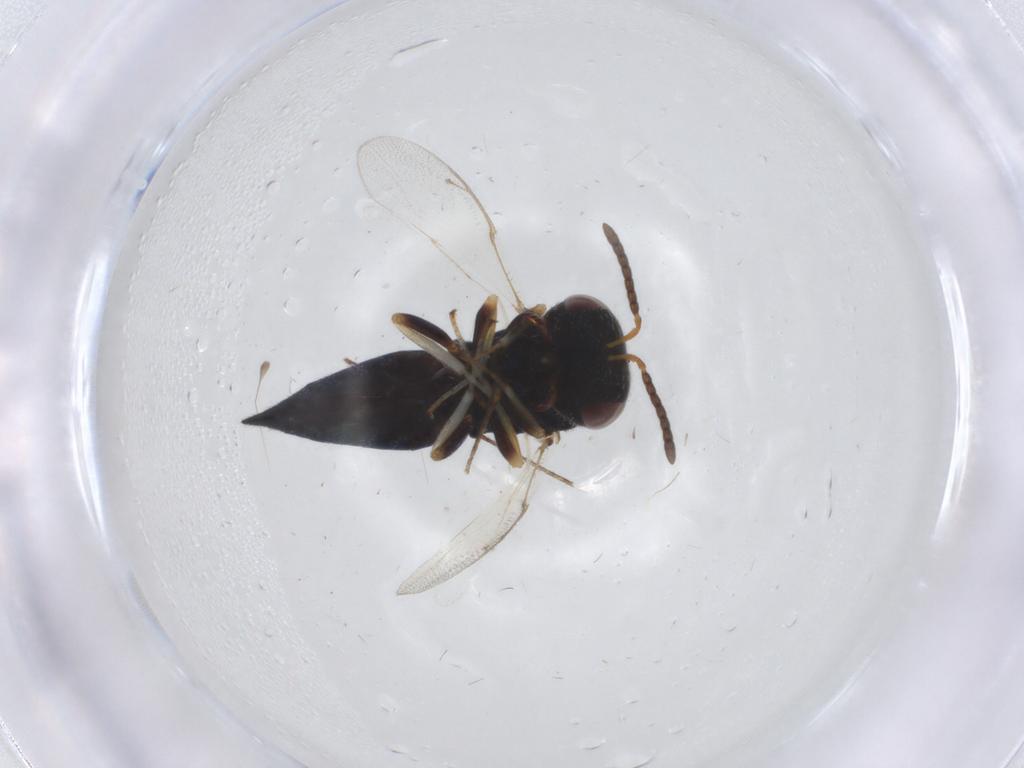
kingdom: Animalia
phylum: Arthropoda
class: Insecta
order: Hymenoptera
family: Pteromalidae
